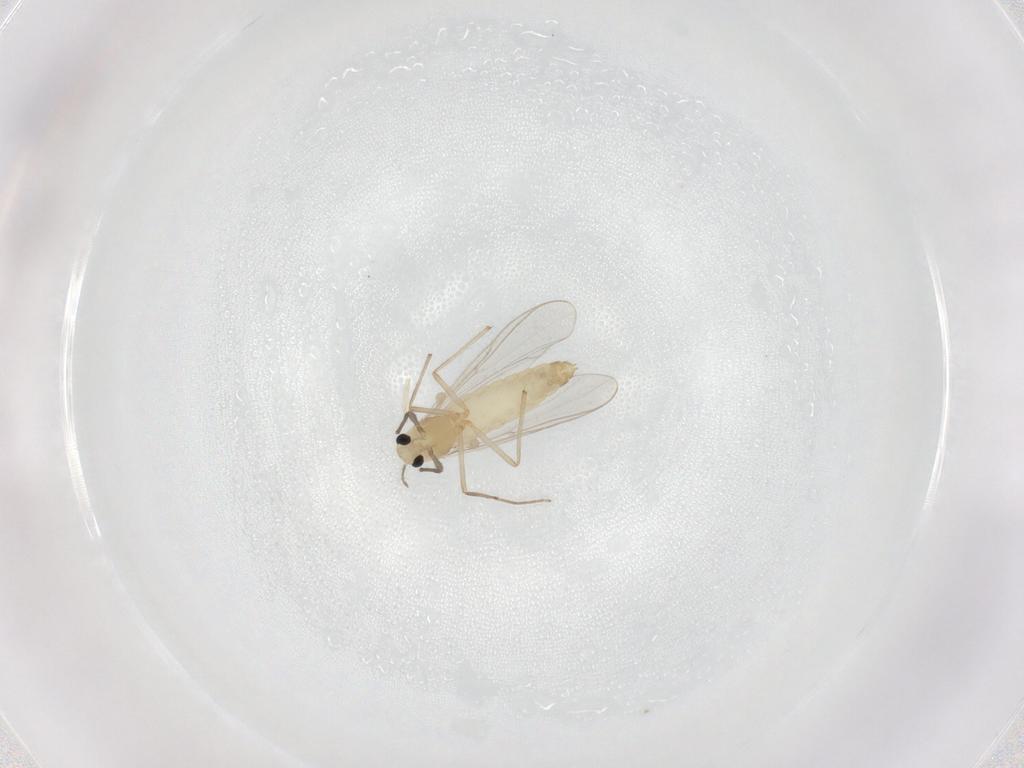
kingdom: Animalia
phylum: Arthropoda
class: Insecta
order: Diptera
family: Chironomidae
